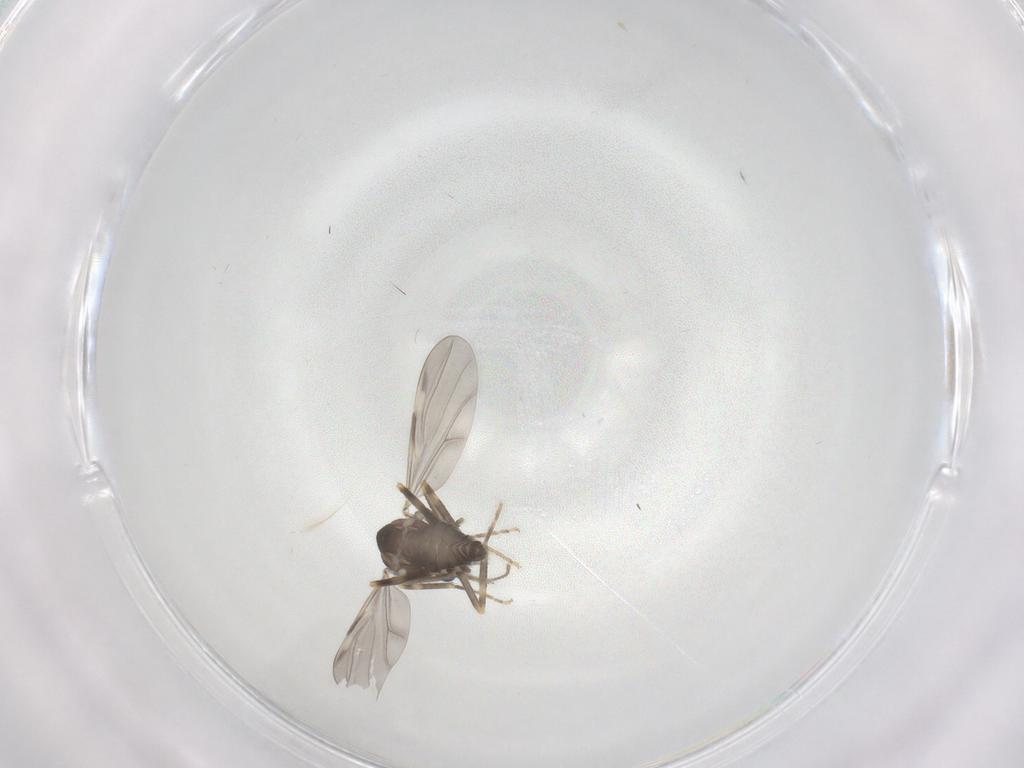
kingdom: Animalia
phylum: Arthropoda
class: Insecta
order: Diptera
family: Ceratopogonidae
